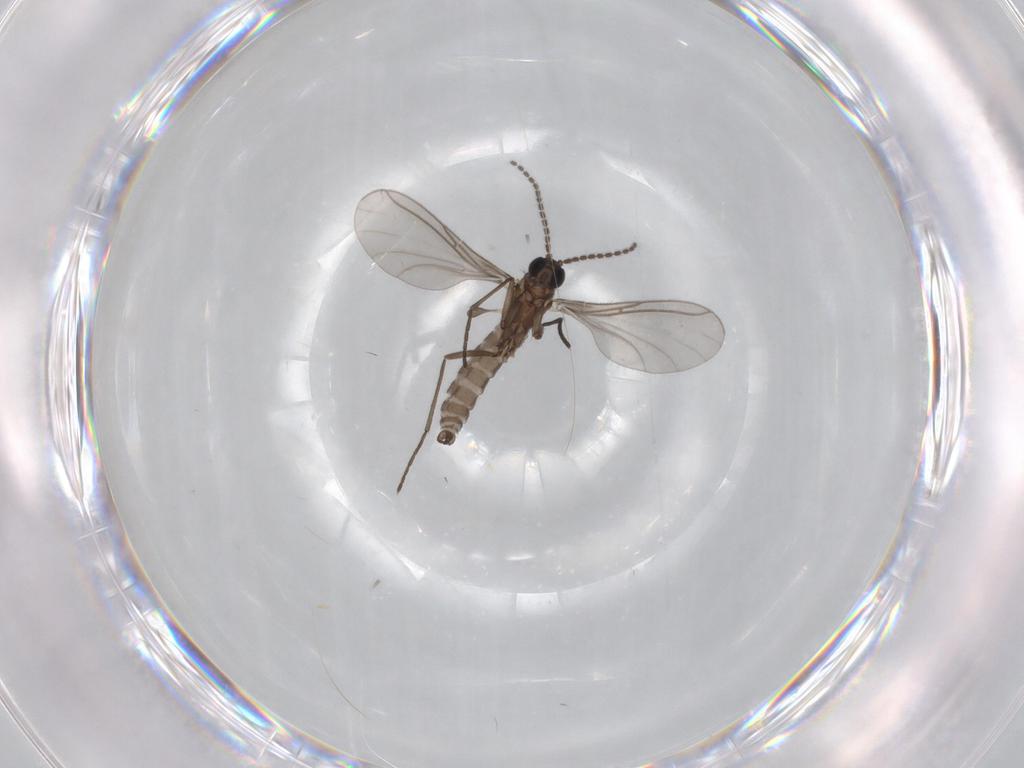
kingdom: Animalia
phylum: Arthropoda
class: Insecta
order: Diptera
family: Chironomidae
